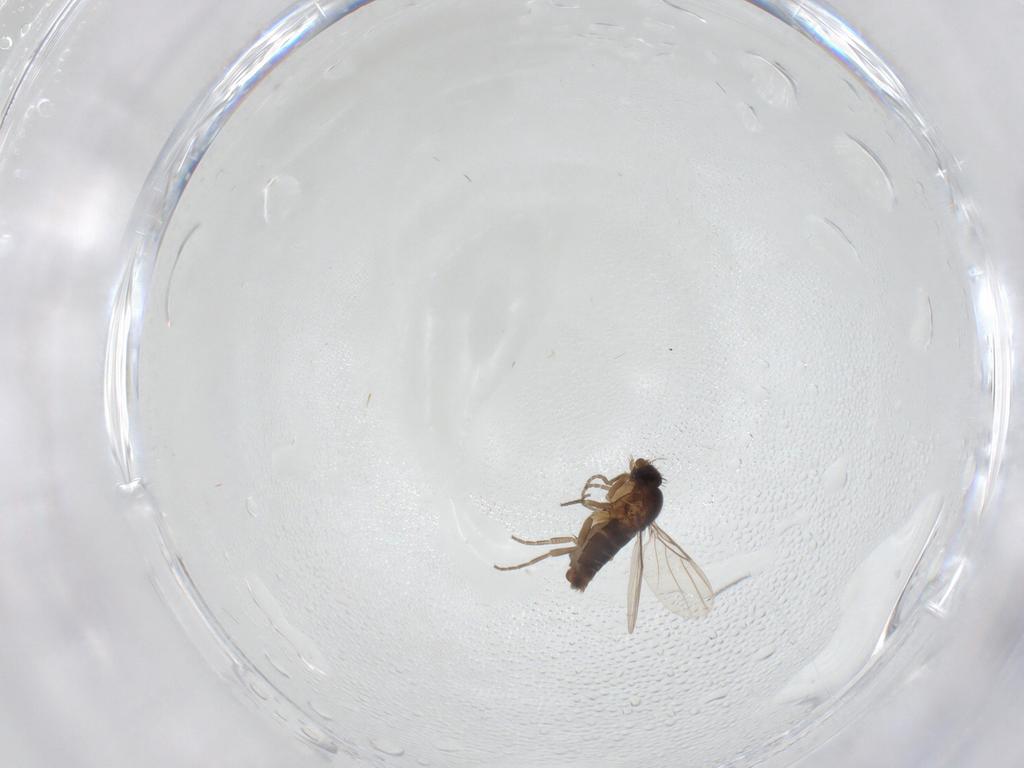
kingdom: Animalia
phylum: Arthropoda
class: Insecta
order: Diptera
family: Phoridae
